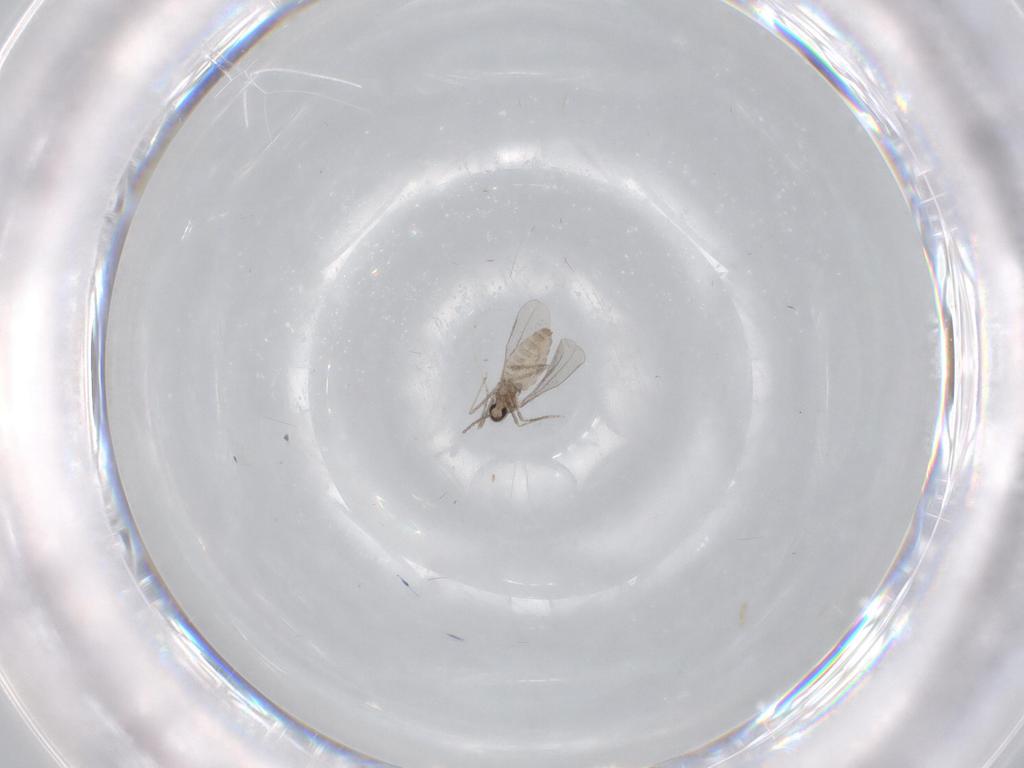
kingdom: Animalia
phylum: Arthropoda
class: Insecta
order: Diptera
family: Cecidomyiidae
